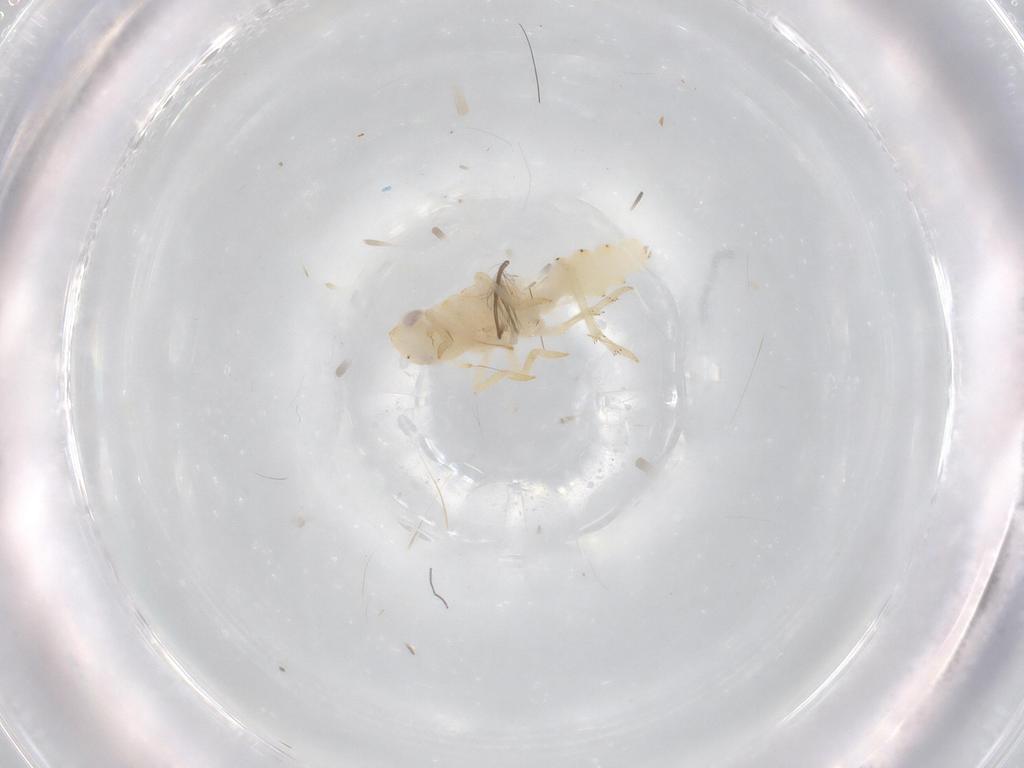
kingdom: Animalia
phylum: Arthropoda
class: Insecta
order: Hemiptera
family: Tropiduchidae
